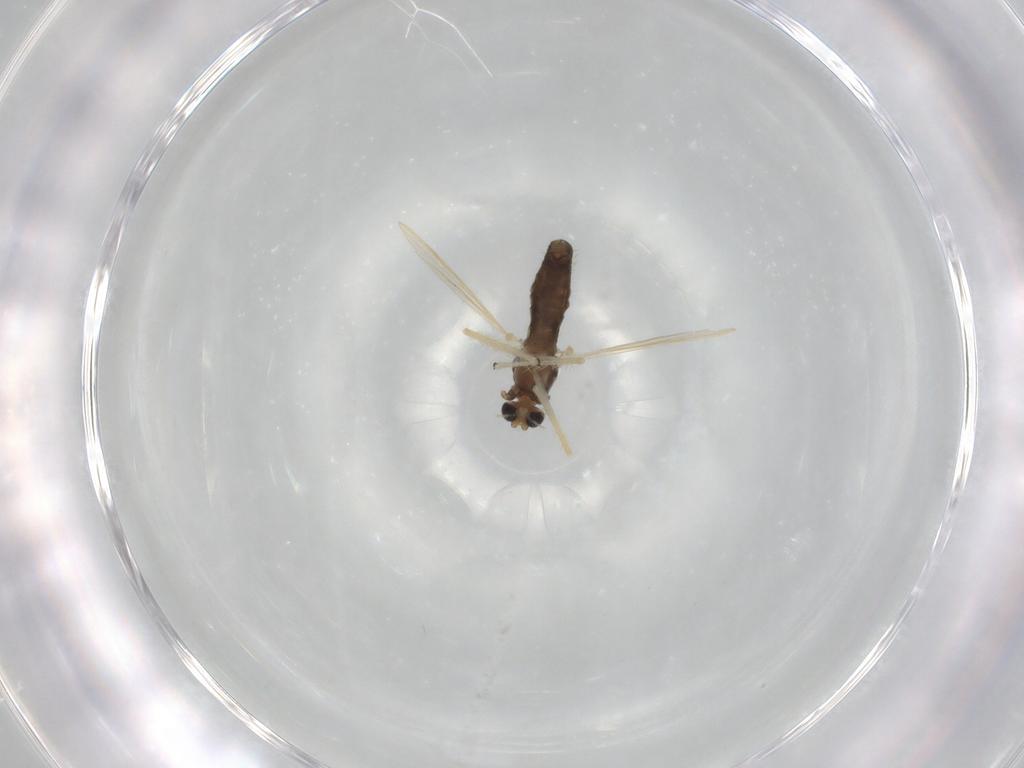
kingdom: Animalia
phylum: Arthropoda
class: Insecta
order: Diptera
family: Chironomidae
